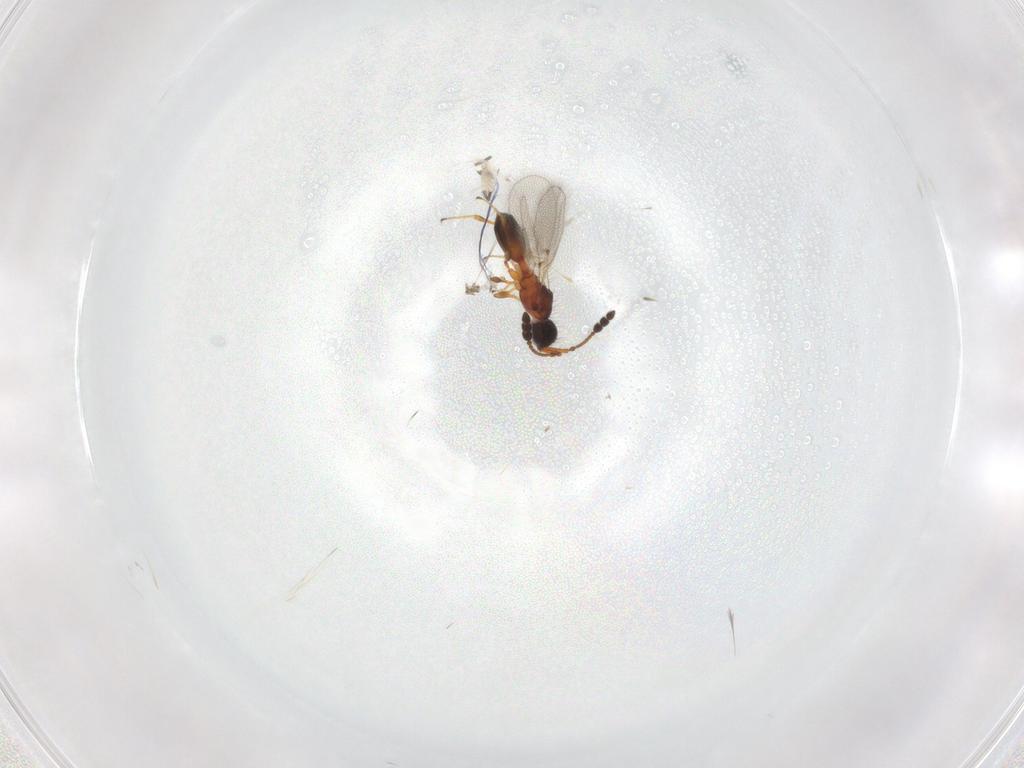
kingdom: Animalia
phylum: Arthropoda
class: Insecta
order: Hymenoptera
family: Diapriidae
